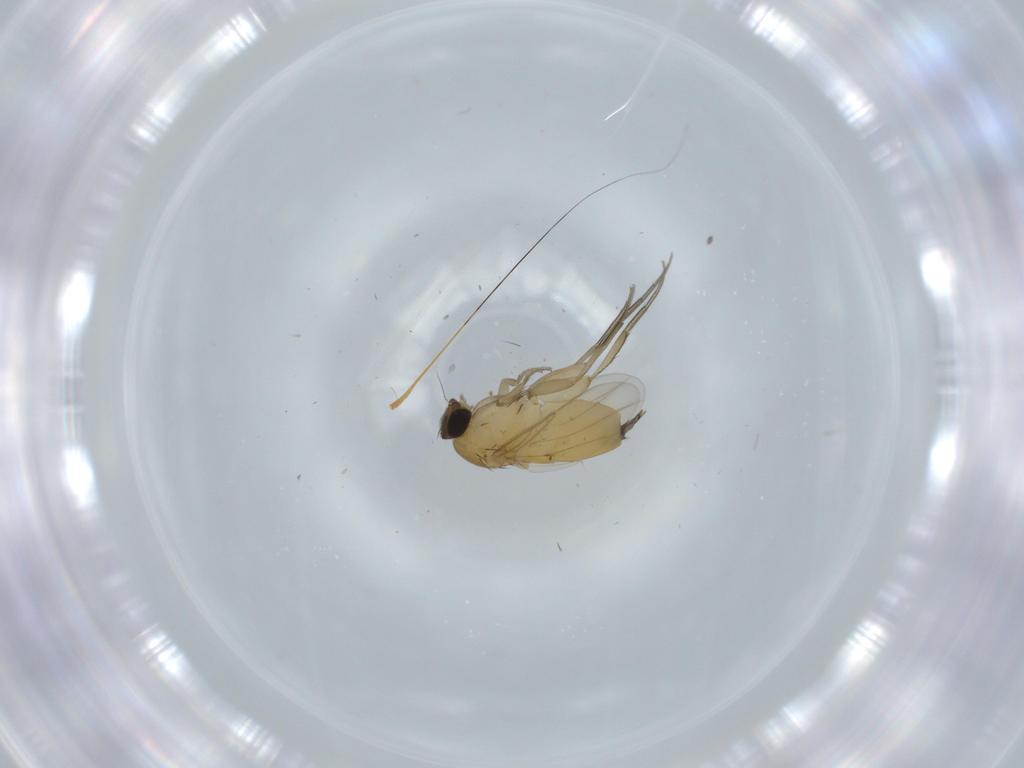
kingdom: Animalia
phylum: Arthropoda
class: Insecta
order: Diptera
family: Phoridae
